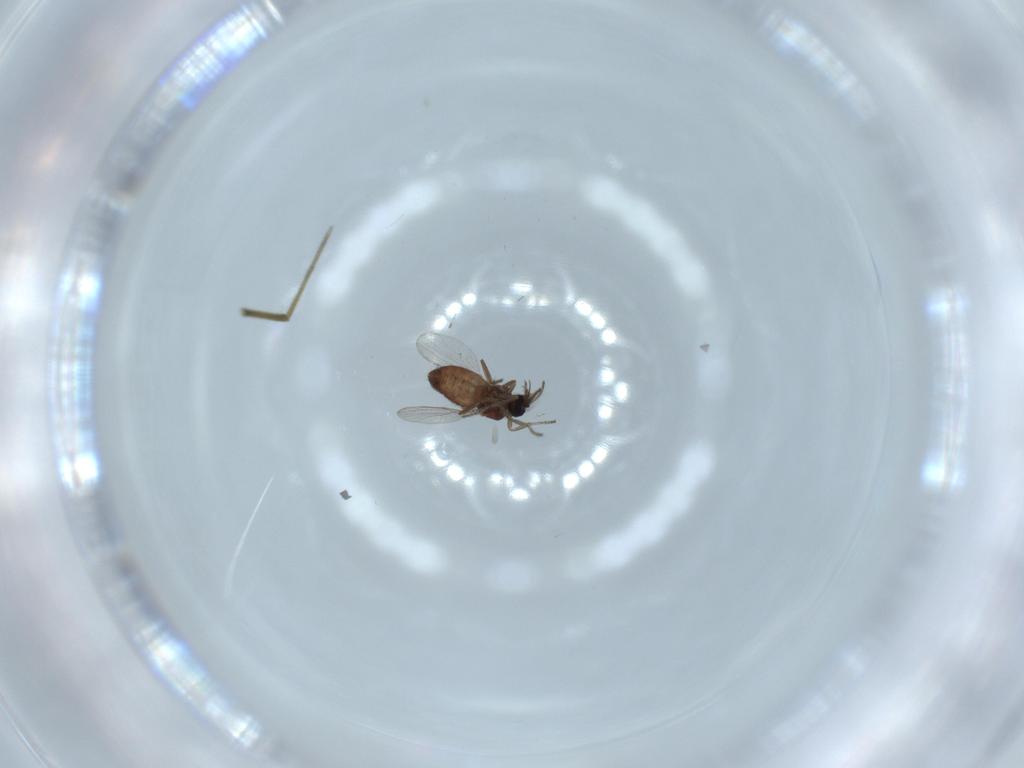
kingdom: Animalia
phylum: Arthropoda
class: Insecta
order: Diptera
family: Ceratopogonidae
